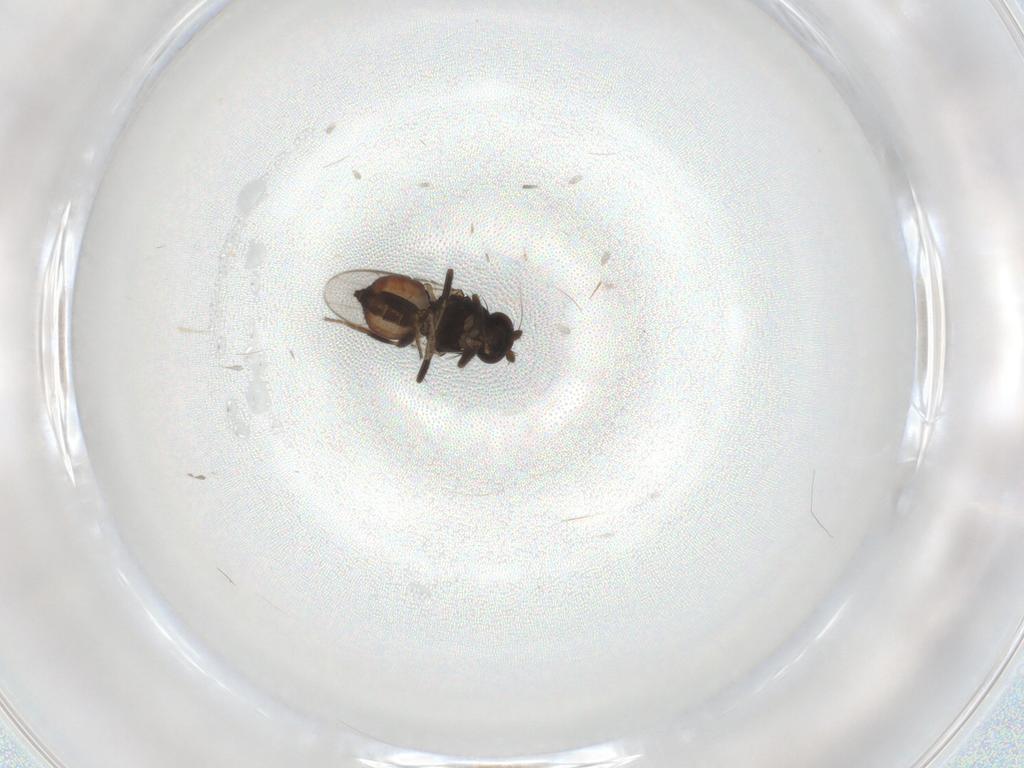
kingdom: Animalia
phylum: Arthropoda
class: Insecta
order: Diptera
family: Sphaeroceridae
